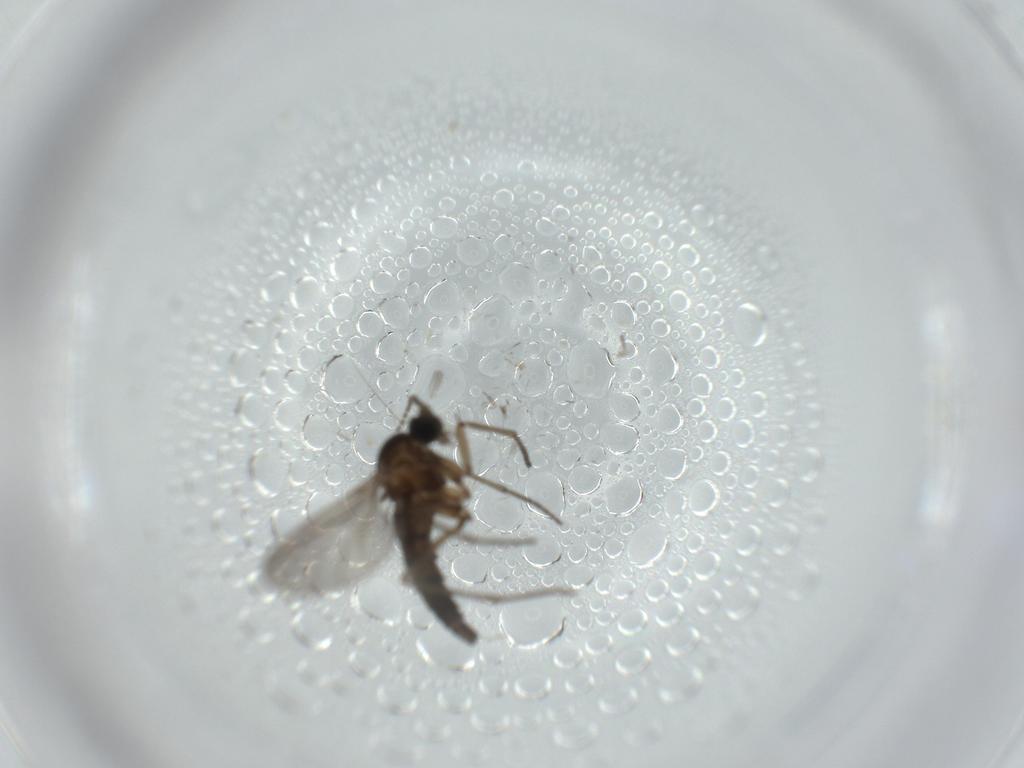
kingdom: Animalia
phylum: Arthropoda
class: Insecta
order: Diptera
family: Sciaridae
